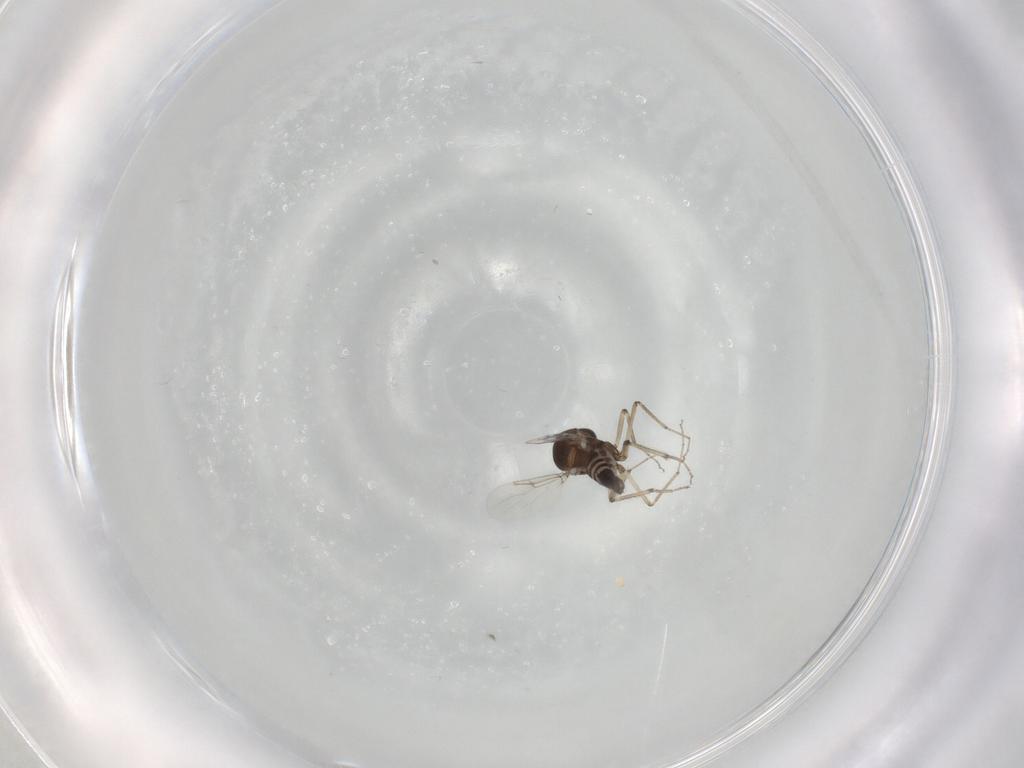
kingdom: Animalia
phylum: Arthropoda
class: Insecta
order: Diptera
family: Ceratopogonidae
